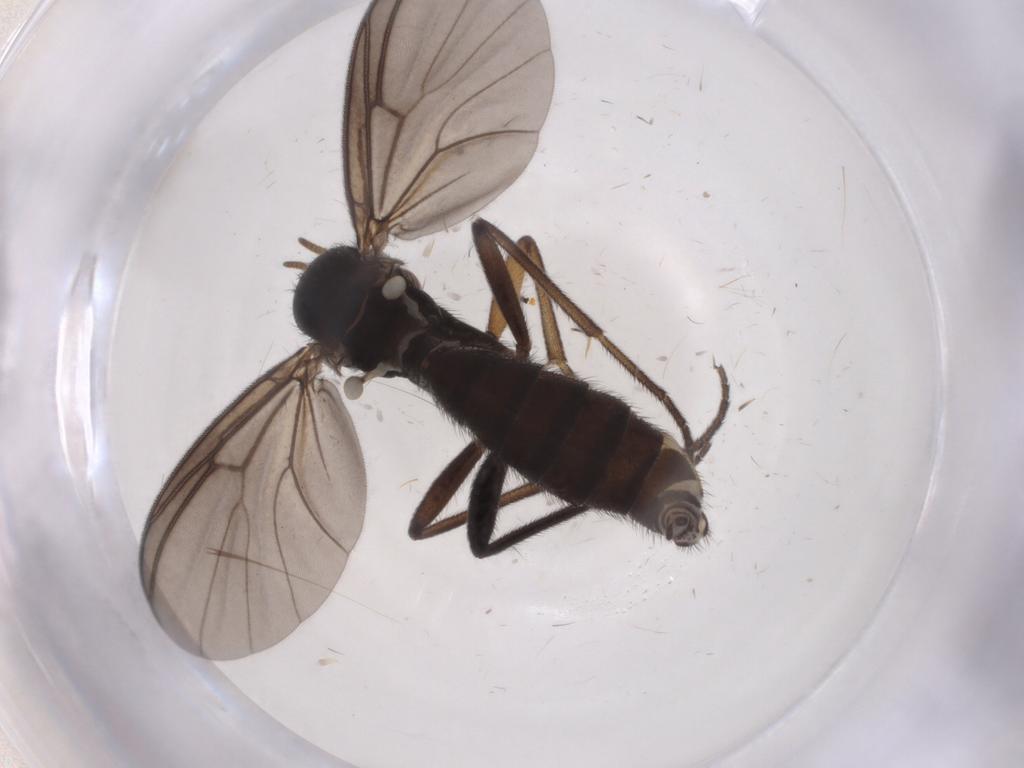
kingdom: Animalia
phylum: Arthropoda
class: Insecta
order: Diptera
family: Mycetophilidae
